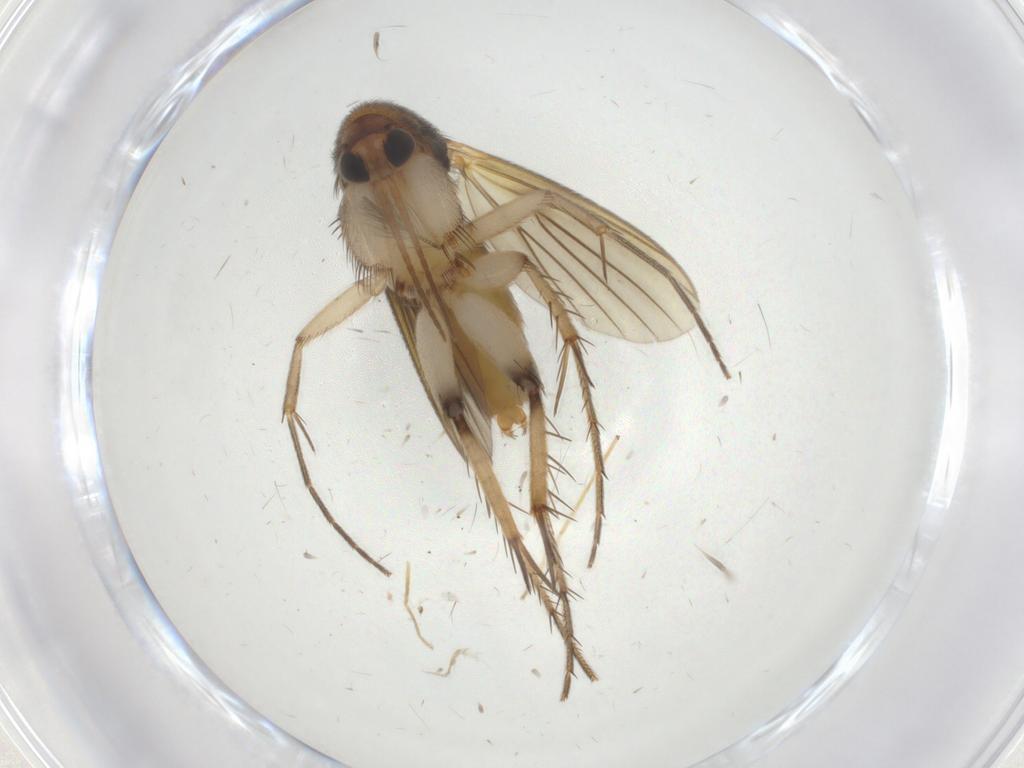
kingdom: Animalia
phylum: Arthropoda
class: Insecta
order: Diptera
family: Mycetophilidae
